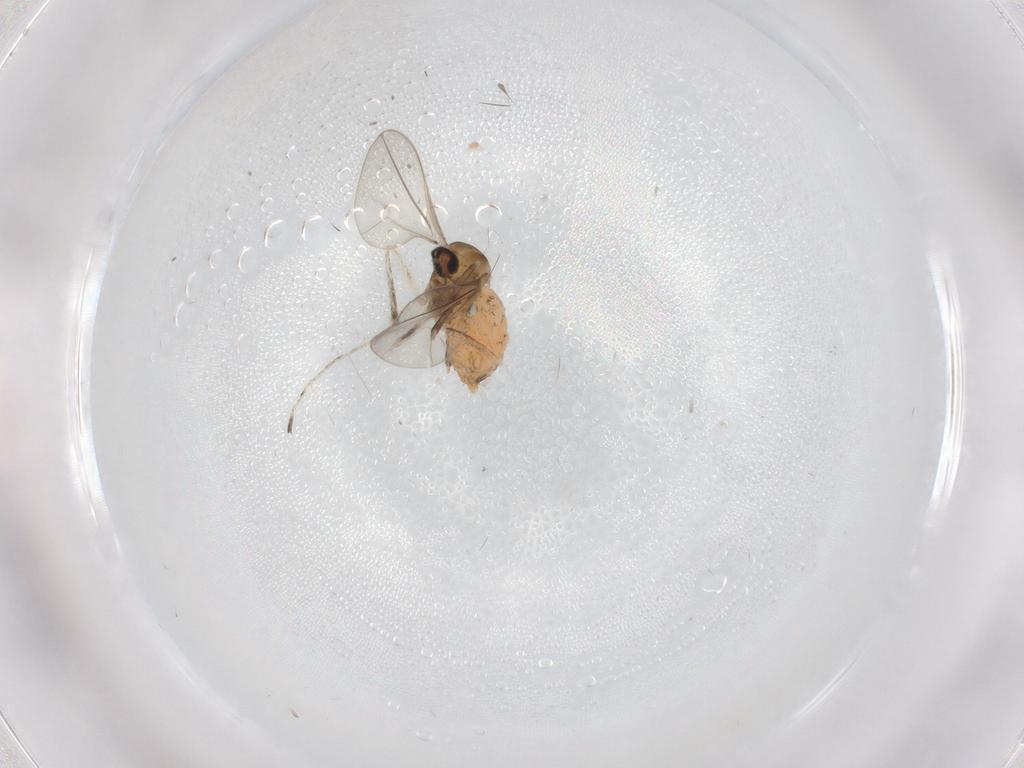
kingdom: Animalia
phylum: Arthropoda
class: Insecta
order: Diptera
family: Cecidomyiidae
